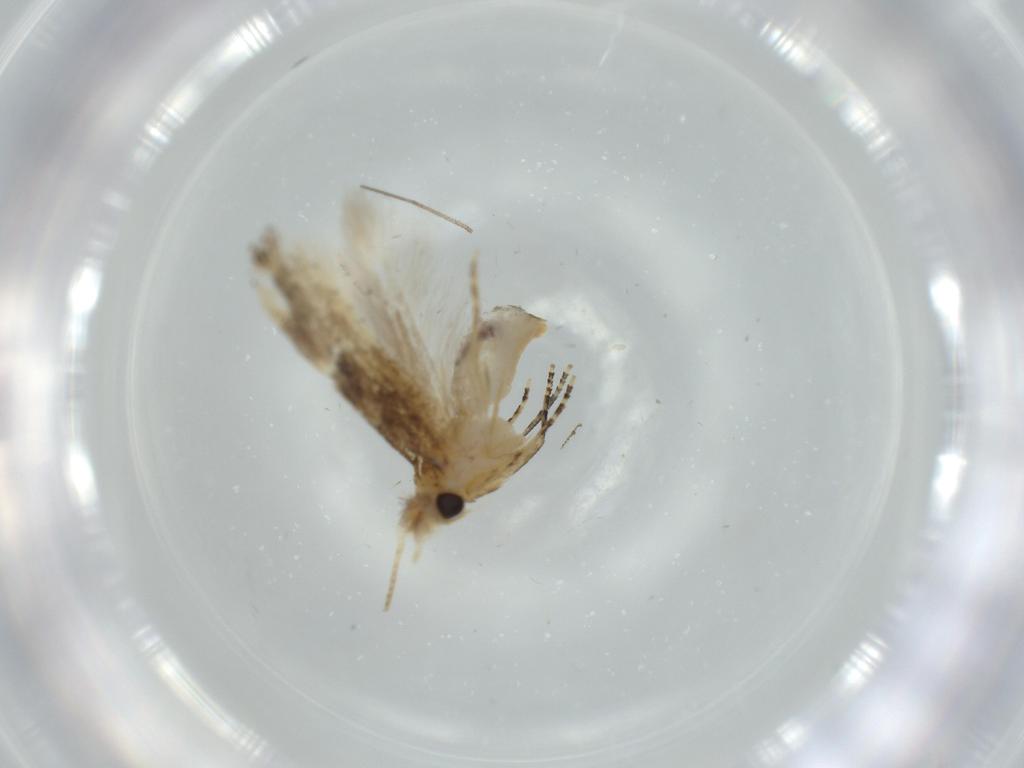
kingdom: Animalia
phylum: Arthropoda
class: Insecta
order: Lepidoptera
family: Bucculatricidae
